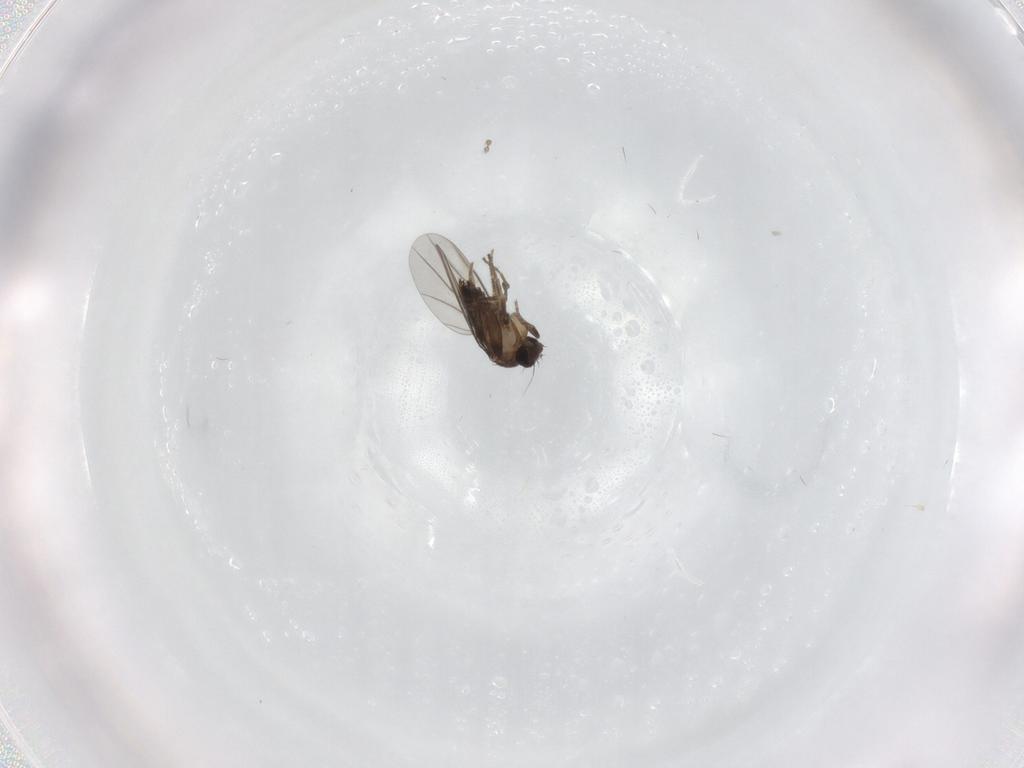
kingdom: Animalia
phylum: Arthropoda
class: Insecta
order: Diptera
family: Phoridae
